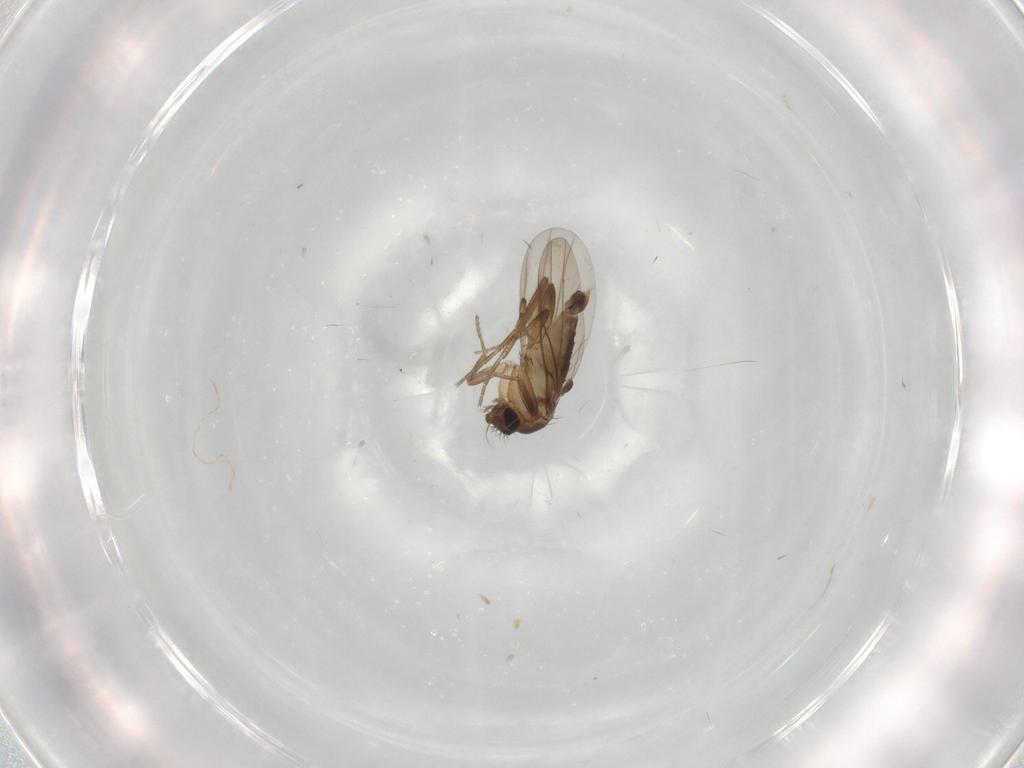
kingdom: Animalia
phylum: Arthropoda
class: Insecta
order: Diptera
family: Phoridae
